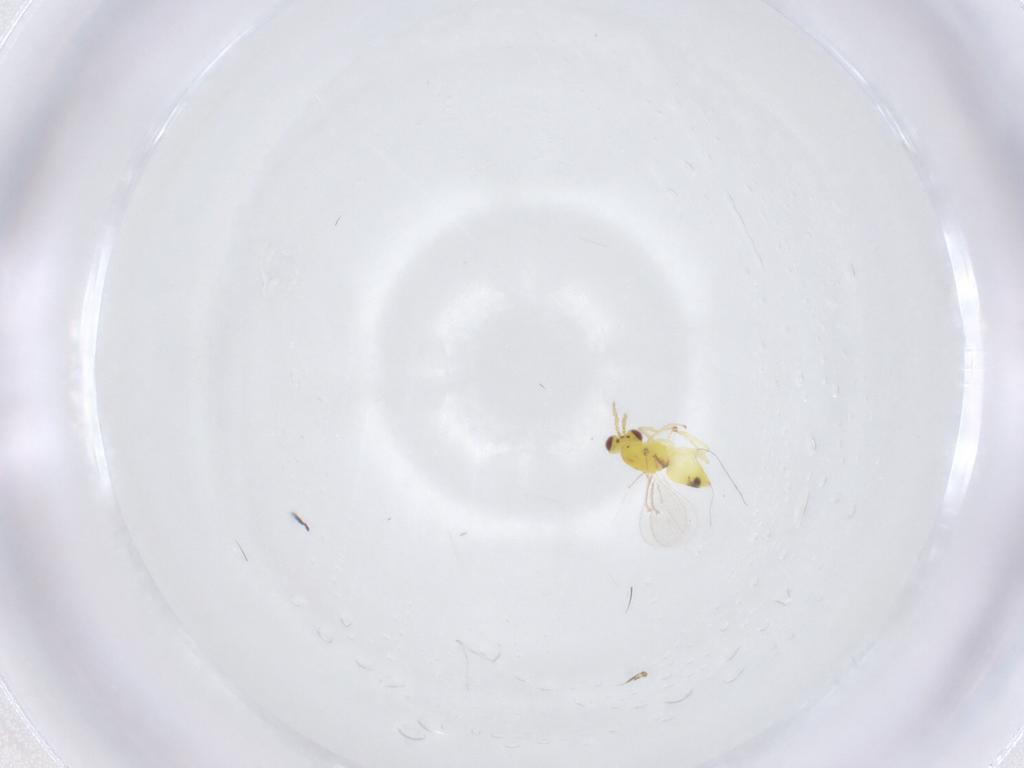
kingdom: Animalia
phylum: Arthropoda
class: Insecta
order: Hymenoptera
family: Eulophidae
